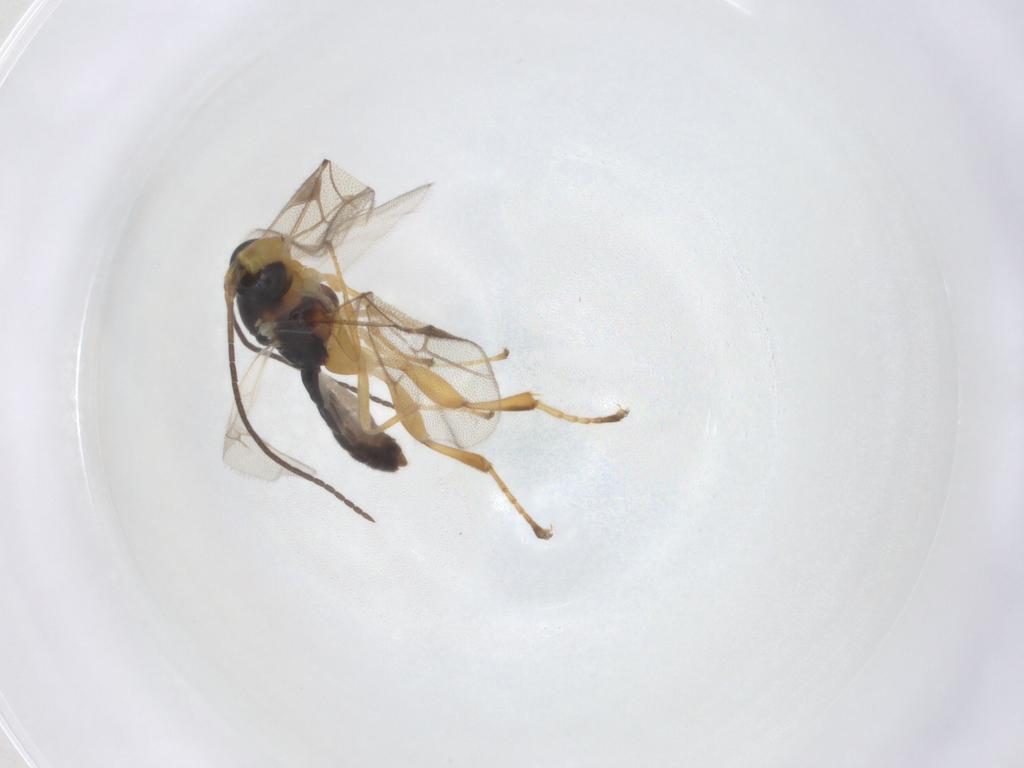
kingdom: Animalia
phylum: Arthropoda
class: Insecta
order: Hymenoptera
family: Ichneumonidae
